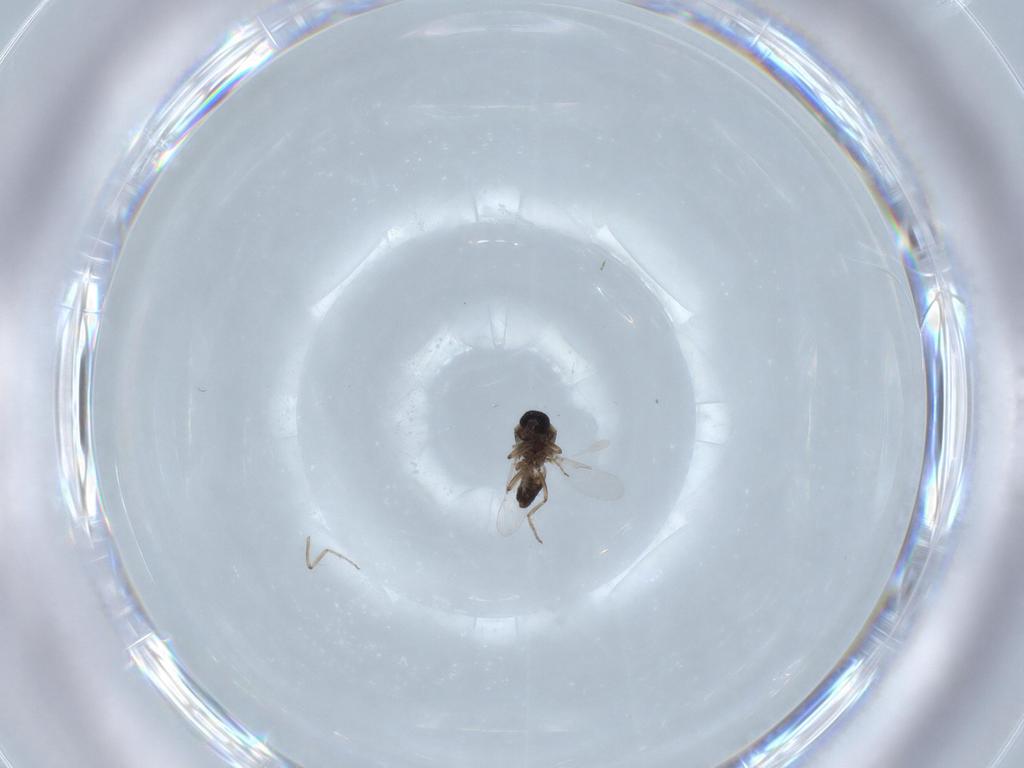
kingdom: Animalia
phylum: Arthropoda
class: Insecta
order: Diptera
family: Ceratopogonidae
